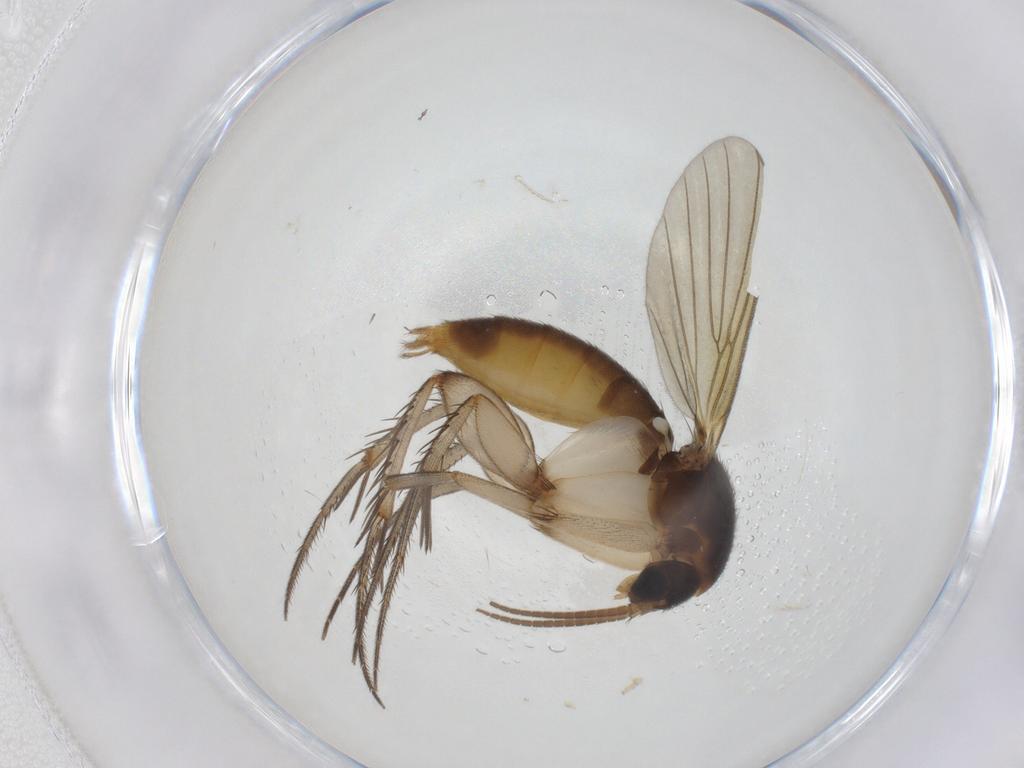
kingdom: Animalia
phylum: Arthropoda
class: Insecta
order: Diptera
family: Mycetophilidae
